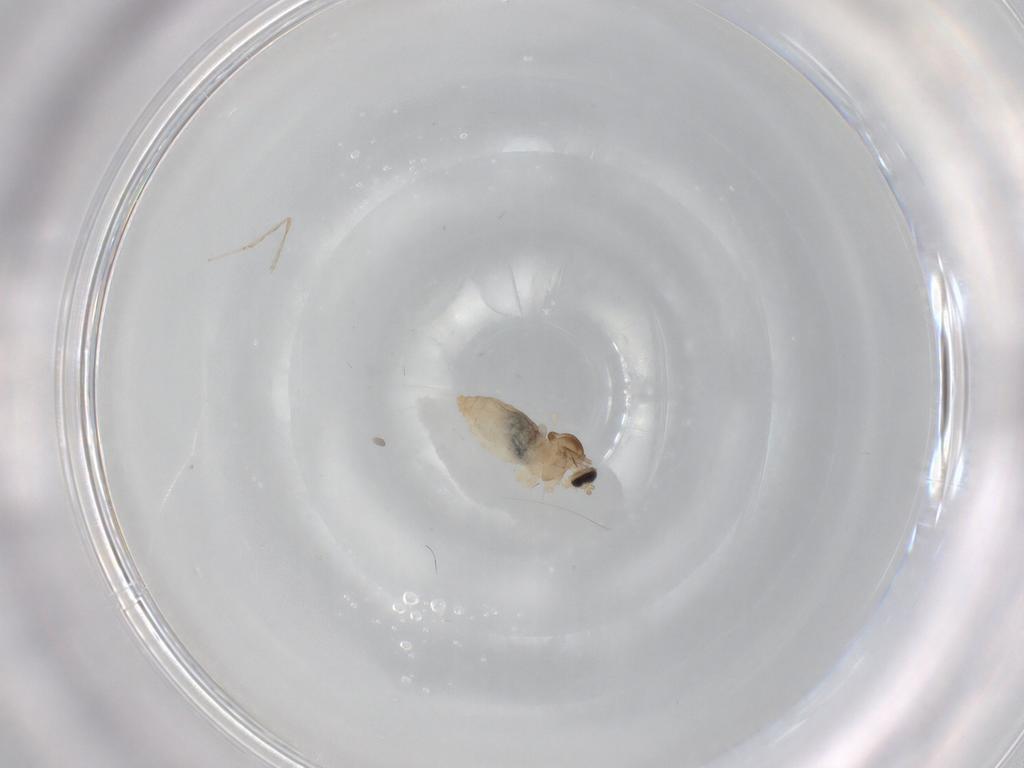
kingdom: Animalia
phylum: Arthropoda
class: Insecta
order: Diptera
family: Cecidomyiidae
